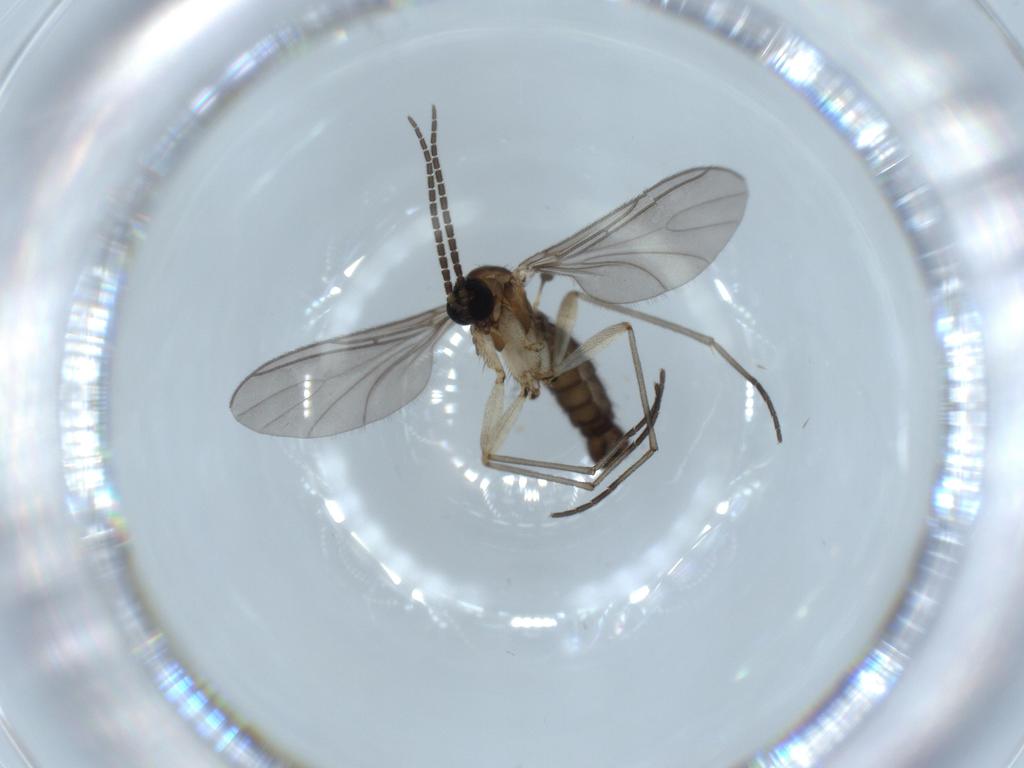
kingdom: Animalia
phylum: Arthropoda
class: Insecta
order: Diptera
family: Sciaridae
